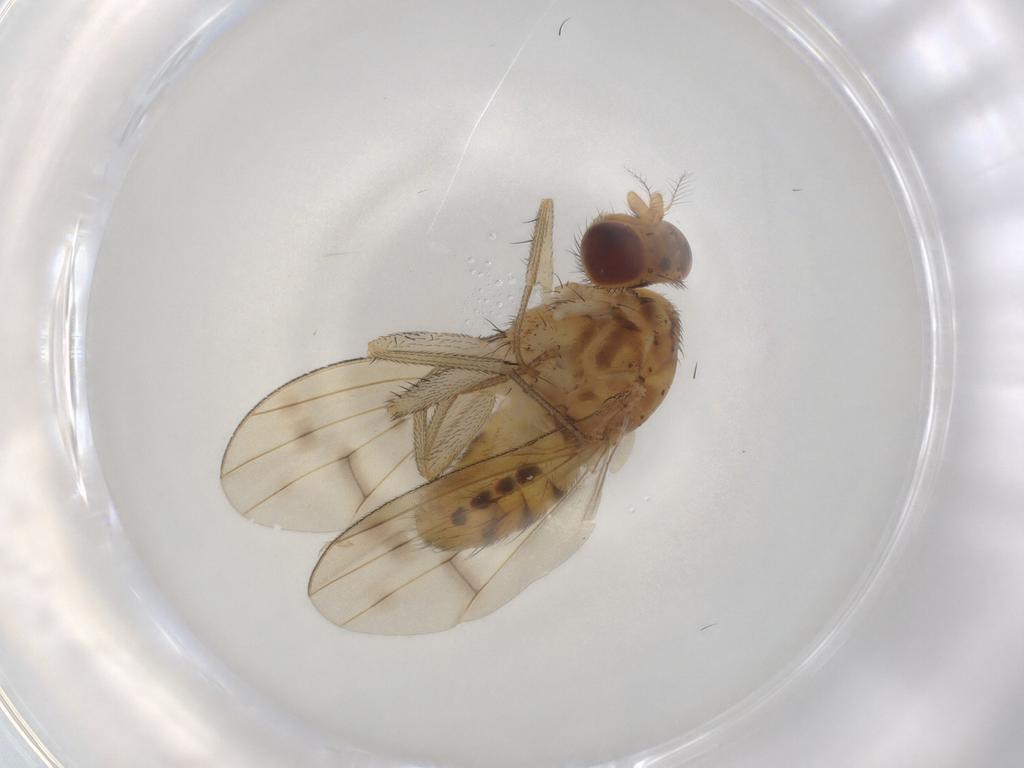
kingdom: Animalia
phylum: Arthropoda
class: Insecta
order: Diptera
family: Cecidomyiidae
